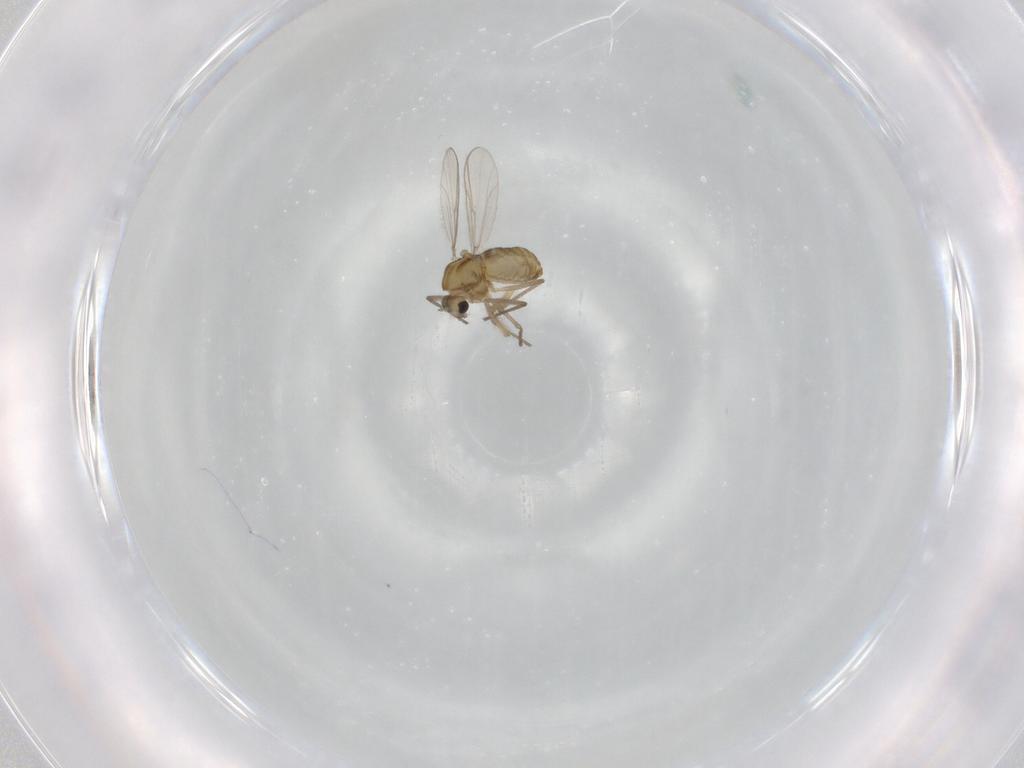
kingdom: Animalia
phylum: Arthropoda
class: Insecta
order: Diptera
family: Chironomidae
